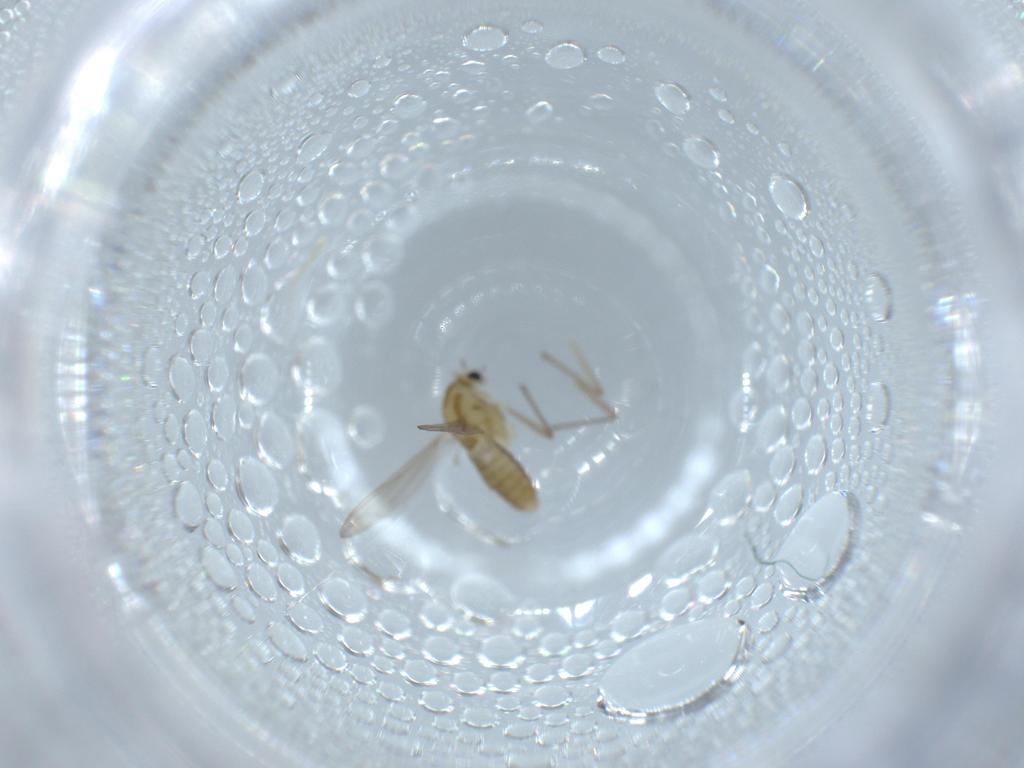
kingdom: Animalia
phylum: Arthropoda
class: Insecta
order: Diptera
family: Chironomidae
